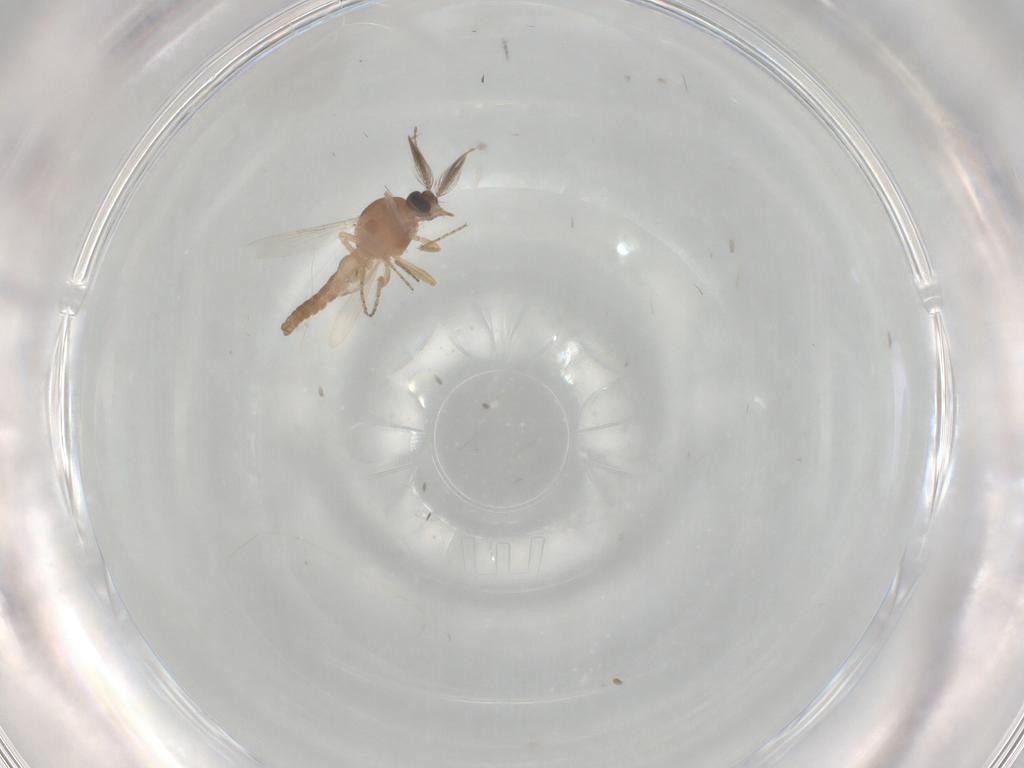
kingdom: Animalia
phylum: Arthropoda
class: Insecta
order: Diptera
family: Ceratopogonidae
